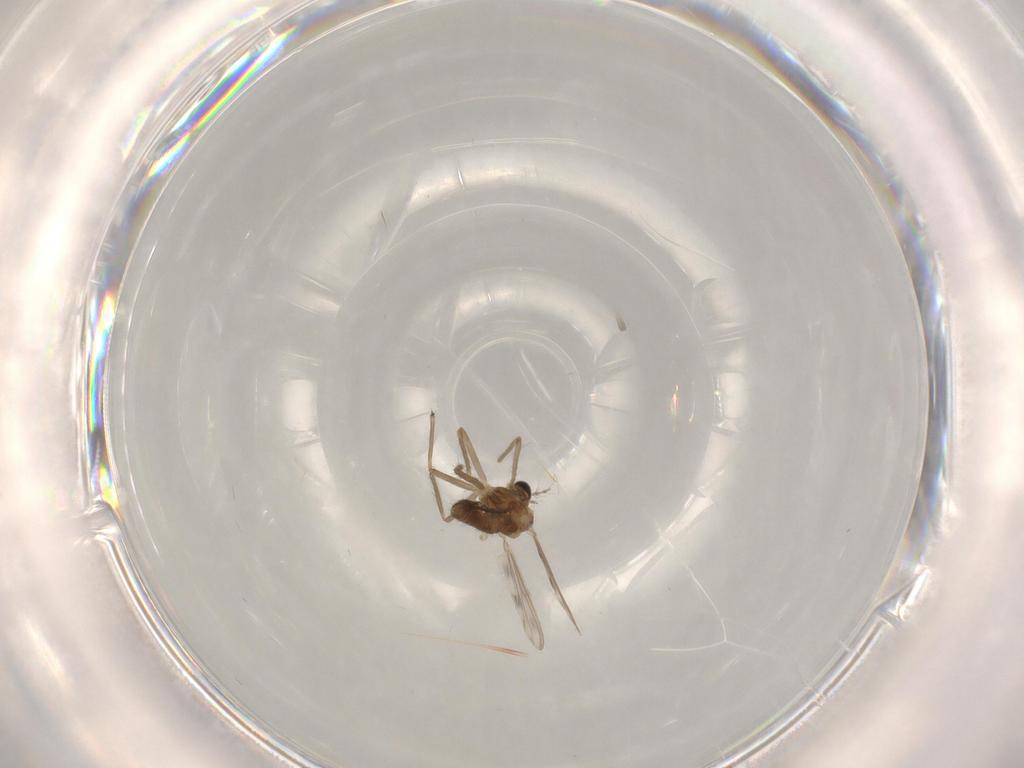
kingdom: Animalia
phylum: Arthropoda
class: Insecta
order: Diptera
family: Chironomidae
